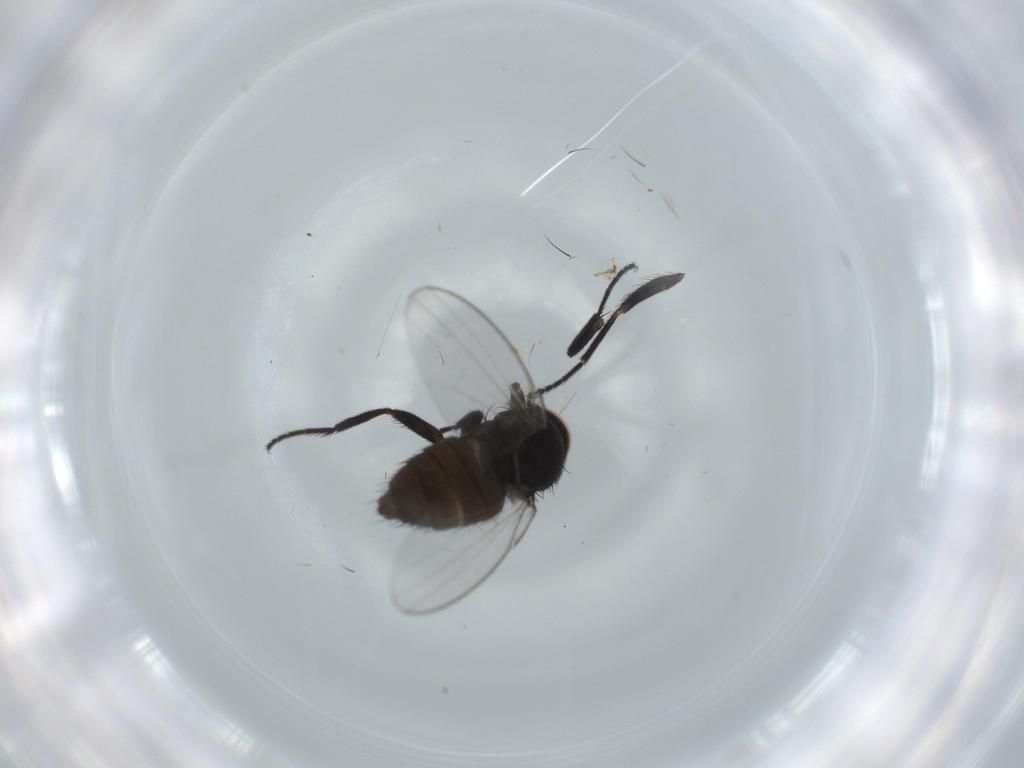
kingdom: Animalia
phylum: Arthropoda
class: Insecta
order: Diptera
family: Milichiidae
